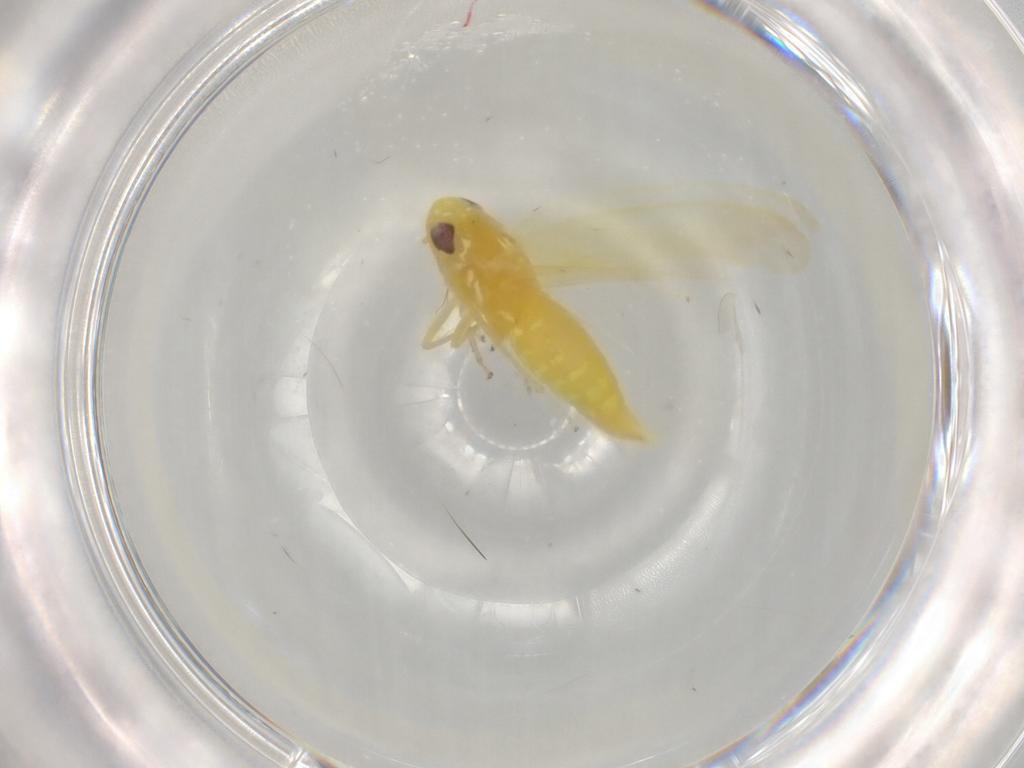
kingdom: Animalia
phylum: Arthropoda
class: Insecta
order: Hemiptera
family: Cicadellidae
